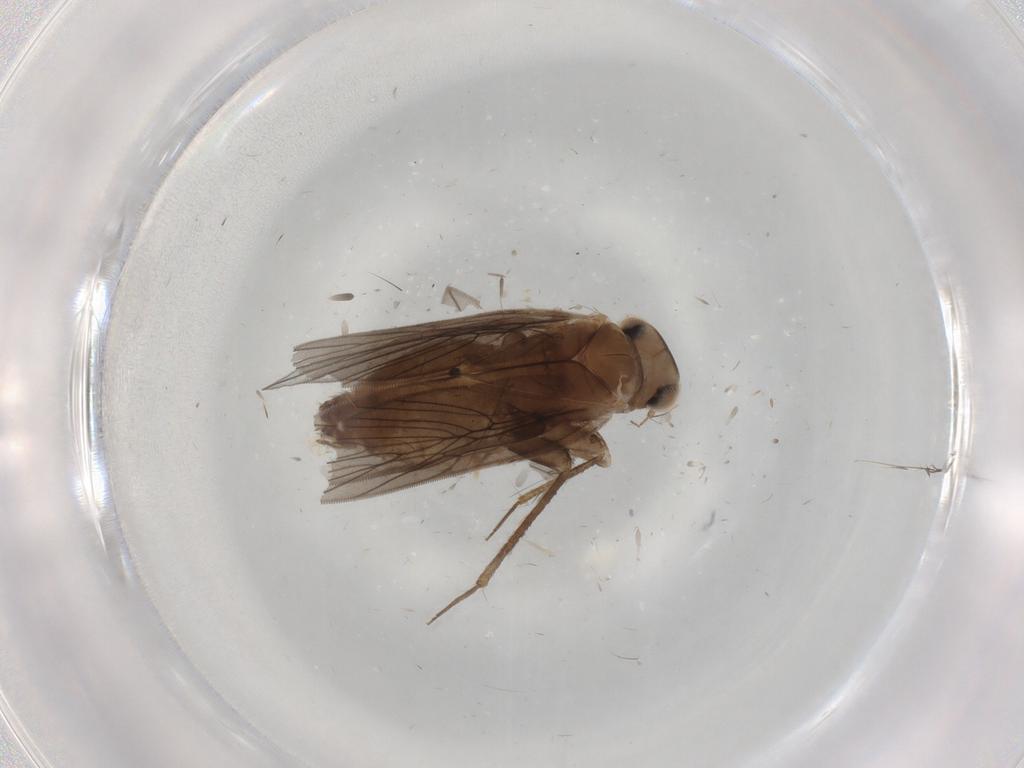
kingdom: Animalia
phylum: Arthropoda
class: Insecta
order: Psocodea
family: Lepidopsocidae
